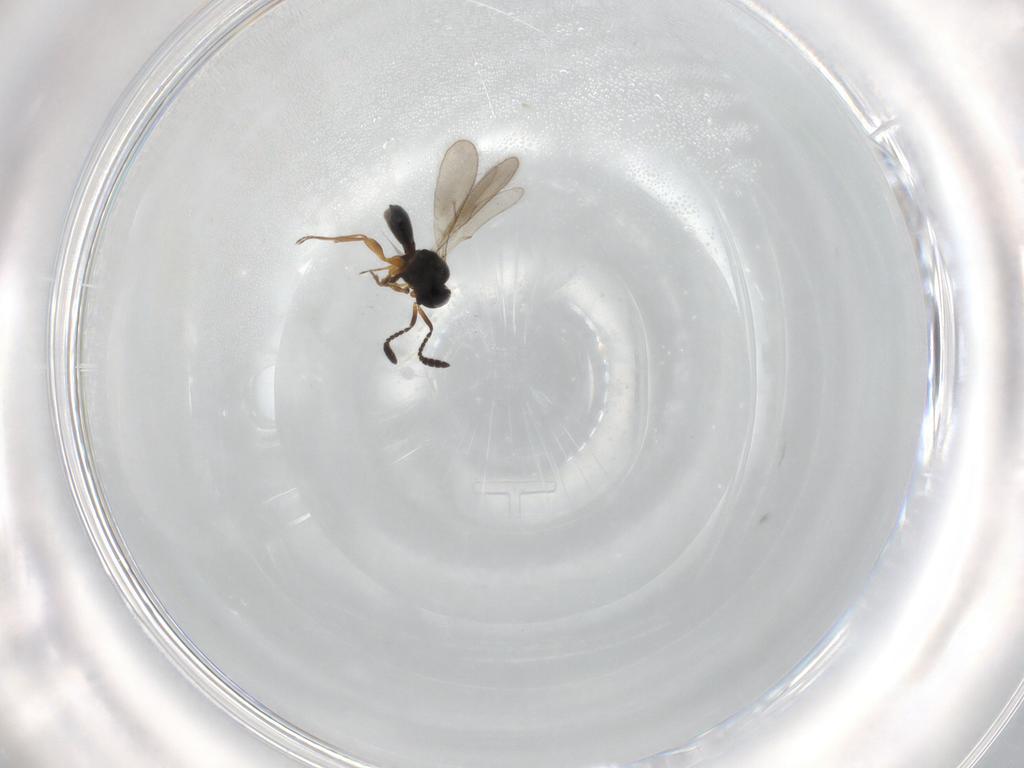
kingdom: Animalia
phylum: Arthropoda
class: Insecta
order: Hymenoptera
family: Scelionidae
